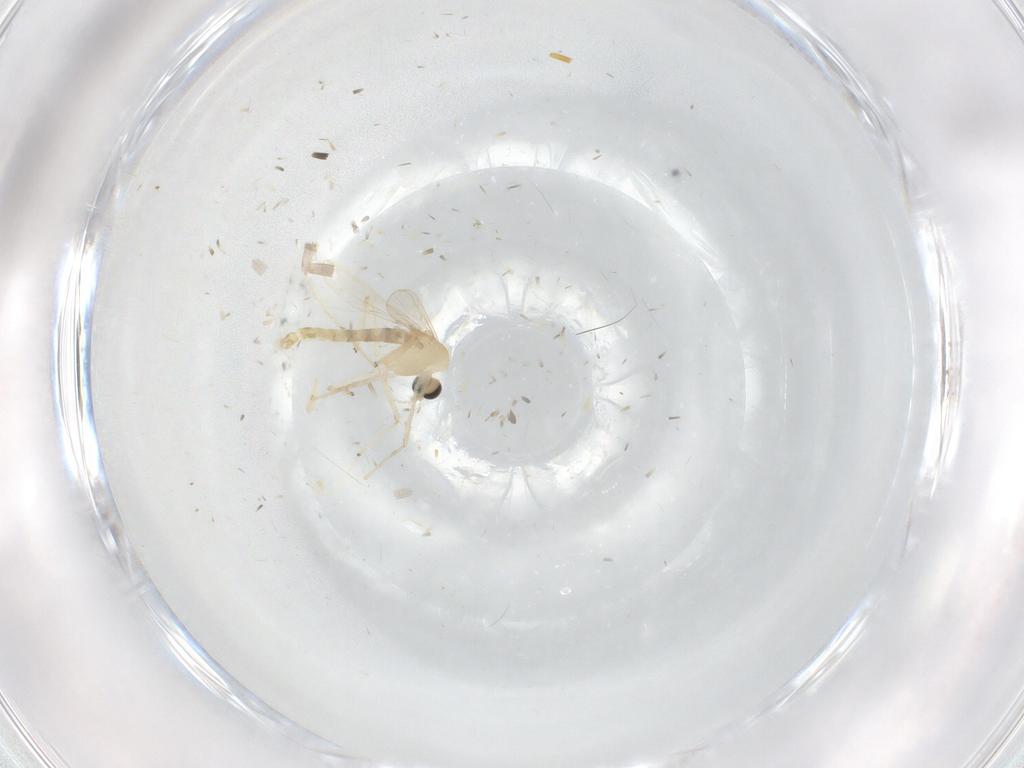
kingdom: Animalia
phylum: Arthropoda
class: Insecta
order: Diptera
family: Chironomidae
